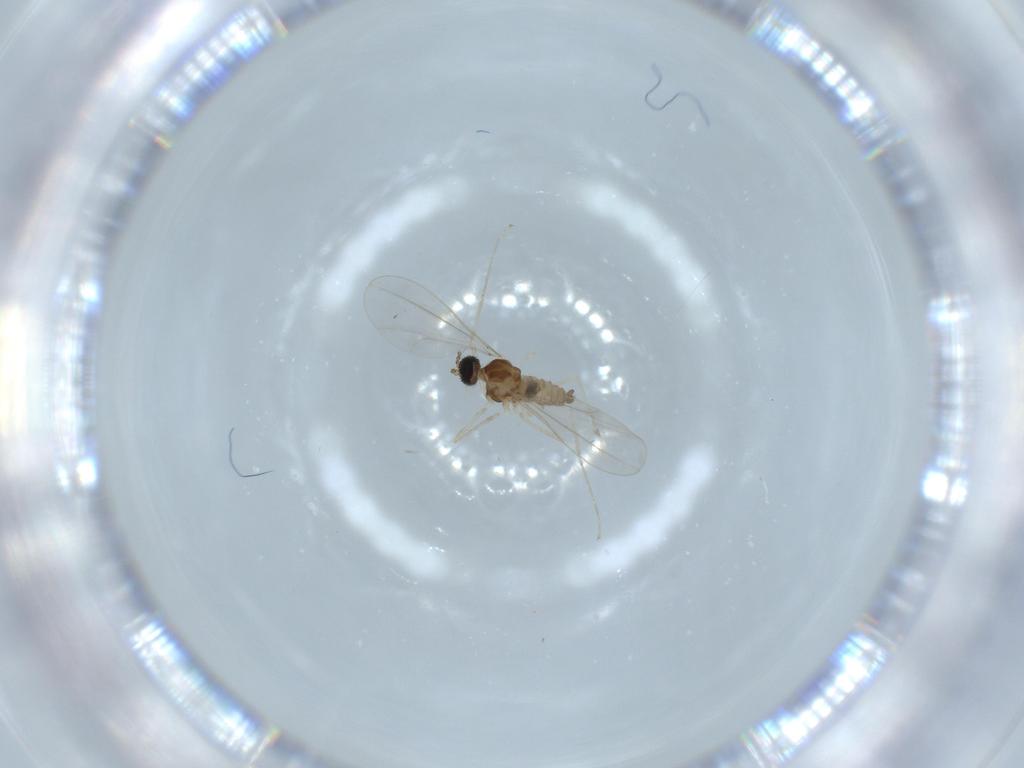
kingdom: Animalia
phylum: Arthropoda
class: Insecta
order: Diptera
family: Cecidomyiidae
